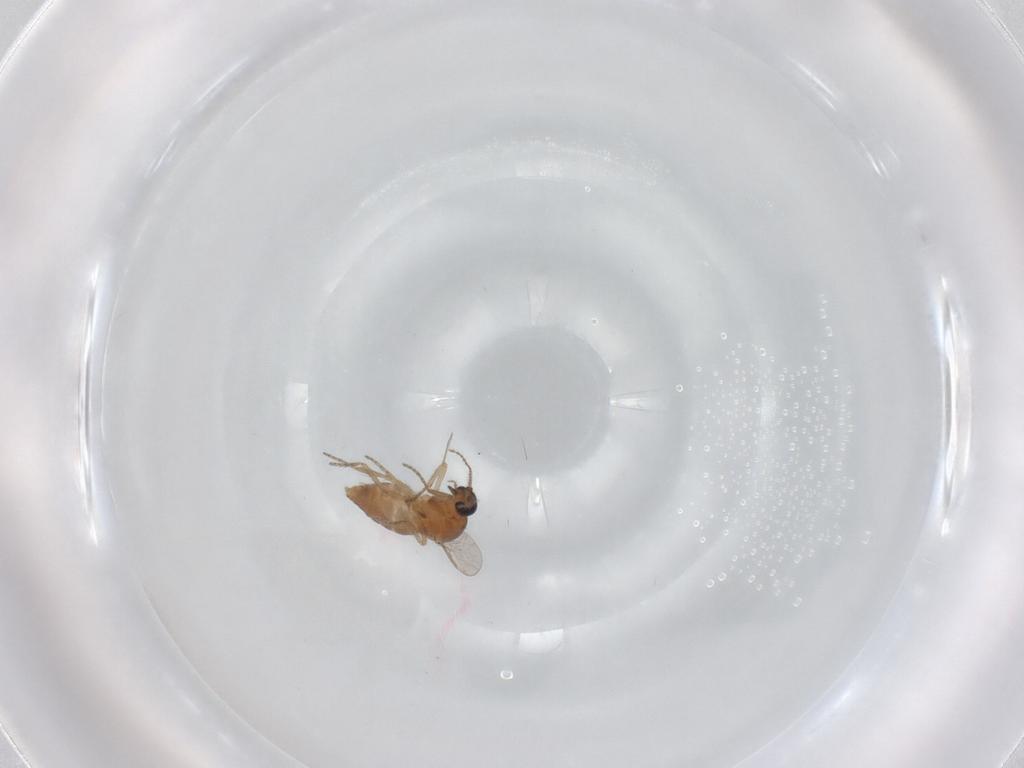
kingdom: Animalia
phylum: Arthropoda
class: Insecta
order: Diptera
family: Ceratopogonidae
